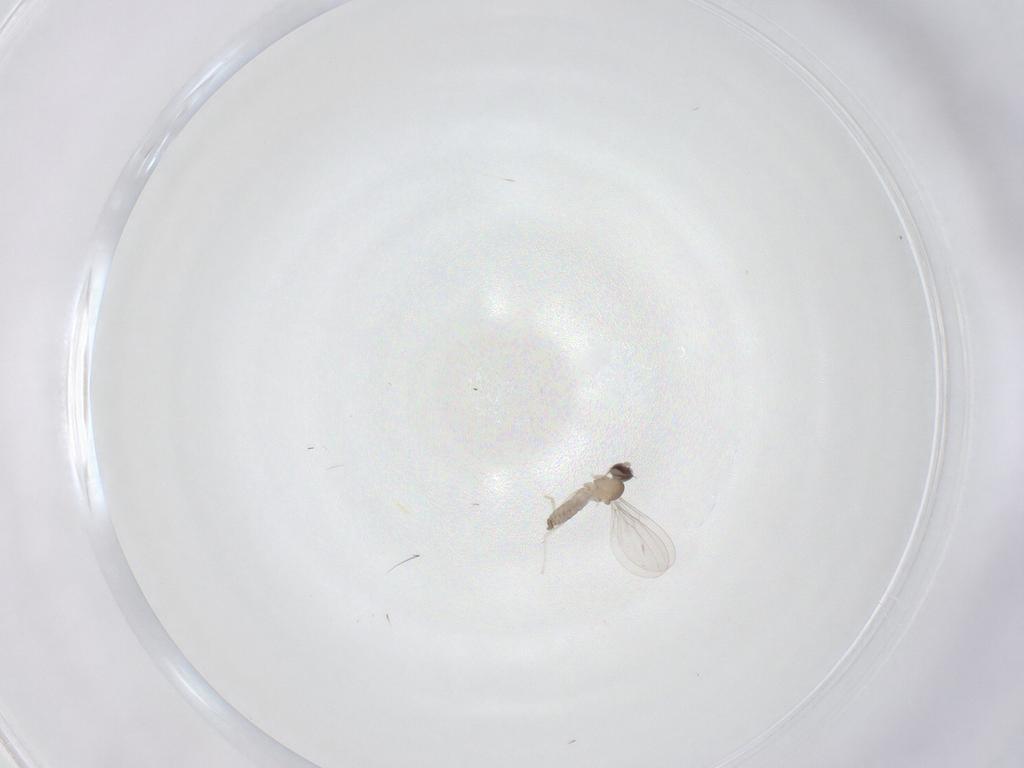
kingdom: Animalia
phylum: Arthropoda
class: Insecta
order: Diptera
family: Cecidomyiidae
